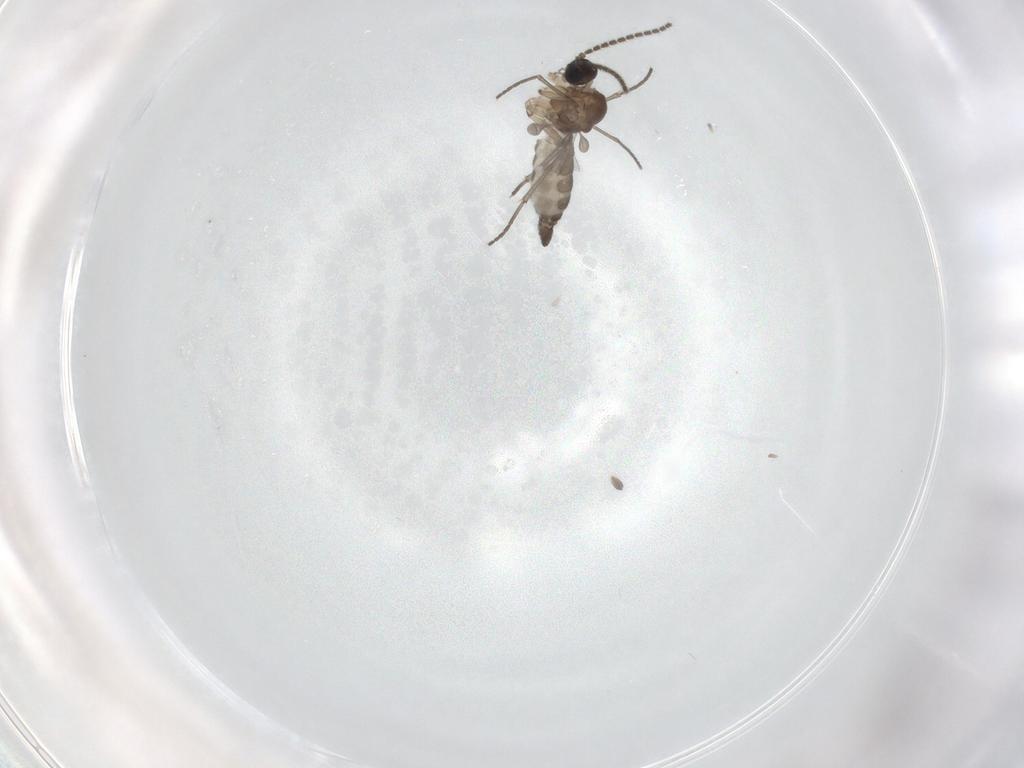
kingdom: Animalia
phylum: Arthropoda
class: Insecta
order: Diptera
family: Sciaridae
